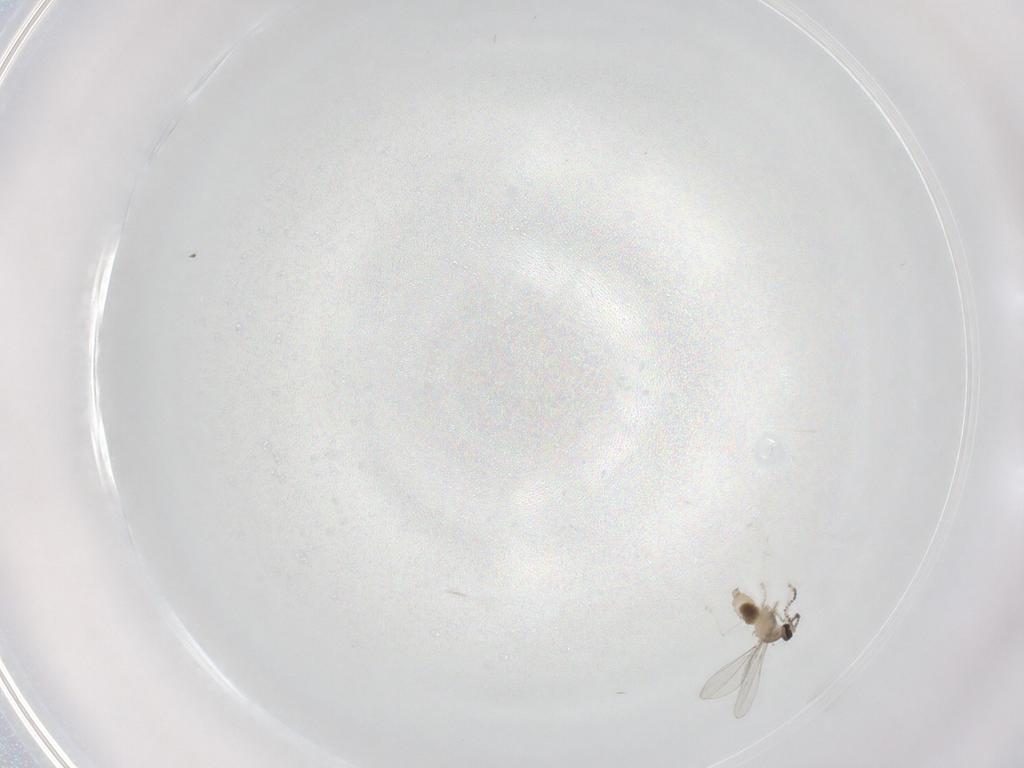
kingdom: Animalia
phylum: Arthropoda
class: Insecta
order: Diptera
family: Cecidomyiidae
